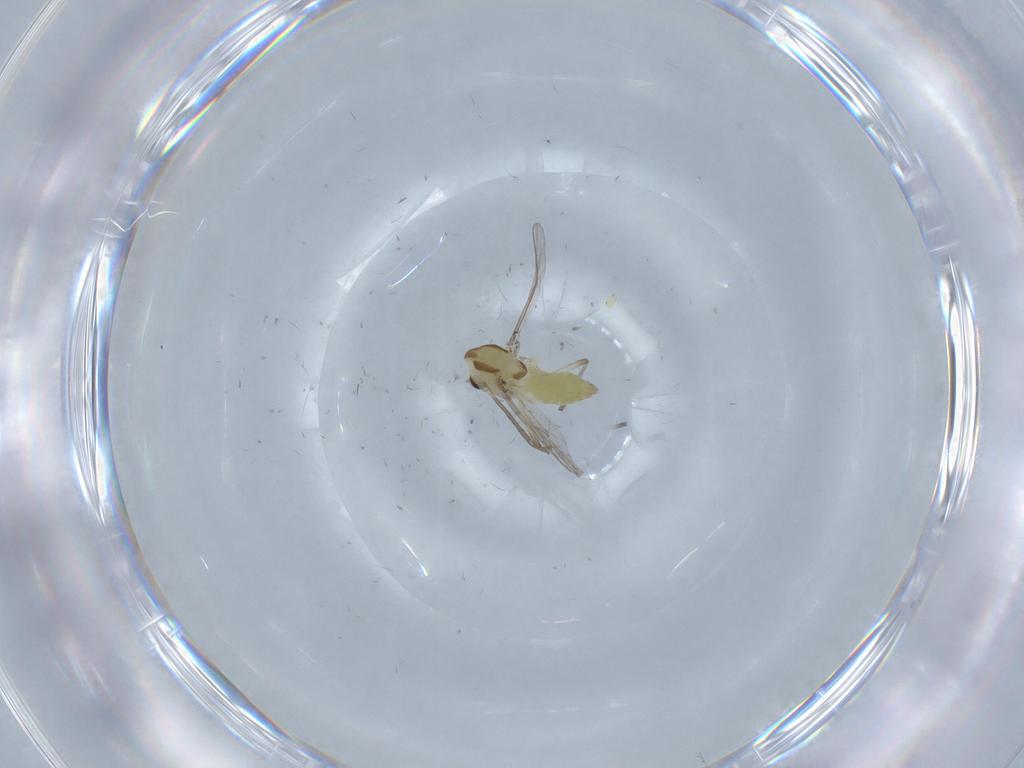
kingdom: Animalia
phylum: Arthropoda
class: Insecta
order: Diptera
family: Chironomidae
